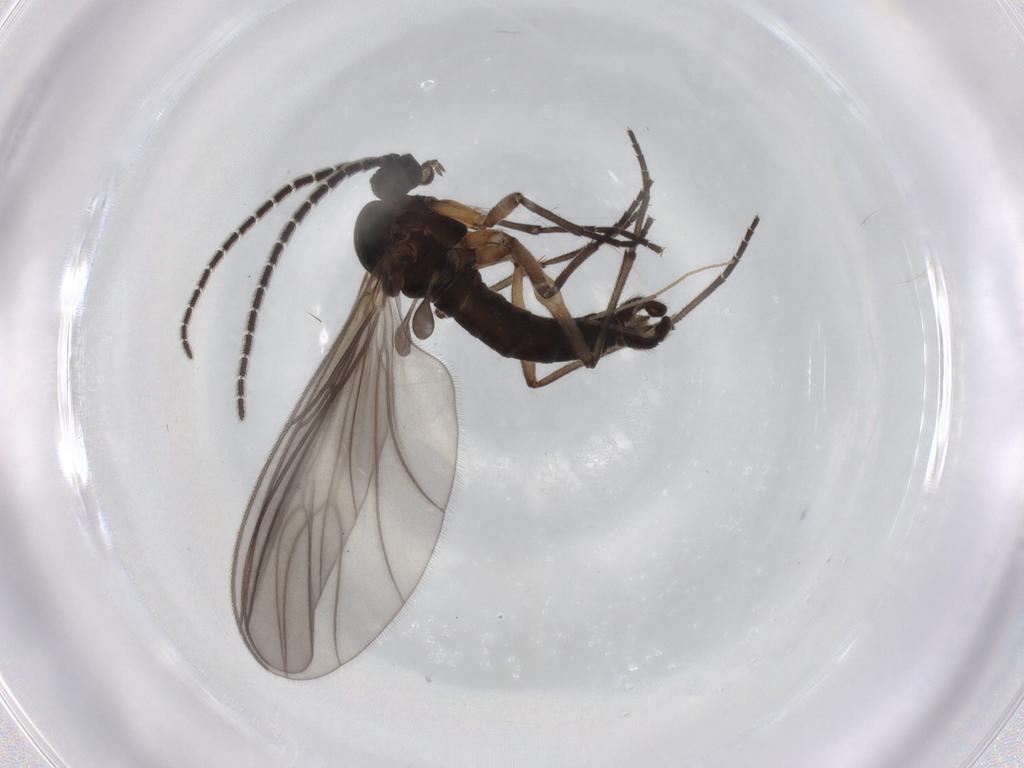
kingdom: Animalia
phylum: Arthropoda
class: Insecta
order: Diptera
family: Sciaridae
